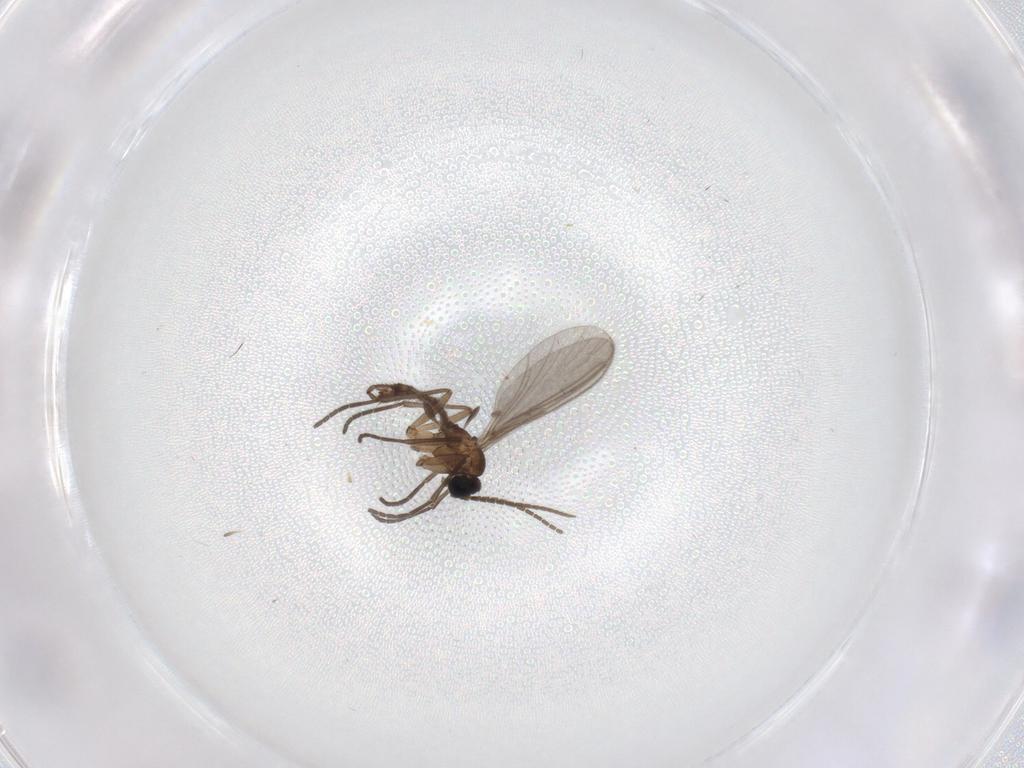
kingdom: Animalia
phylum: Arthropoda
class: Insecta
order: Diptera
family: Sciaridae
